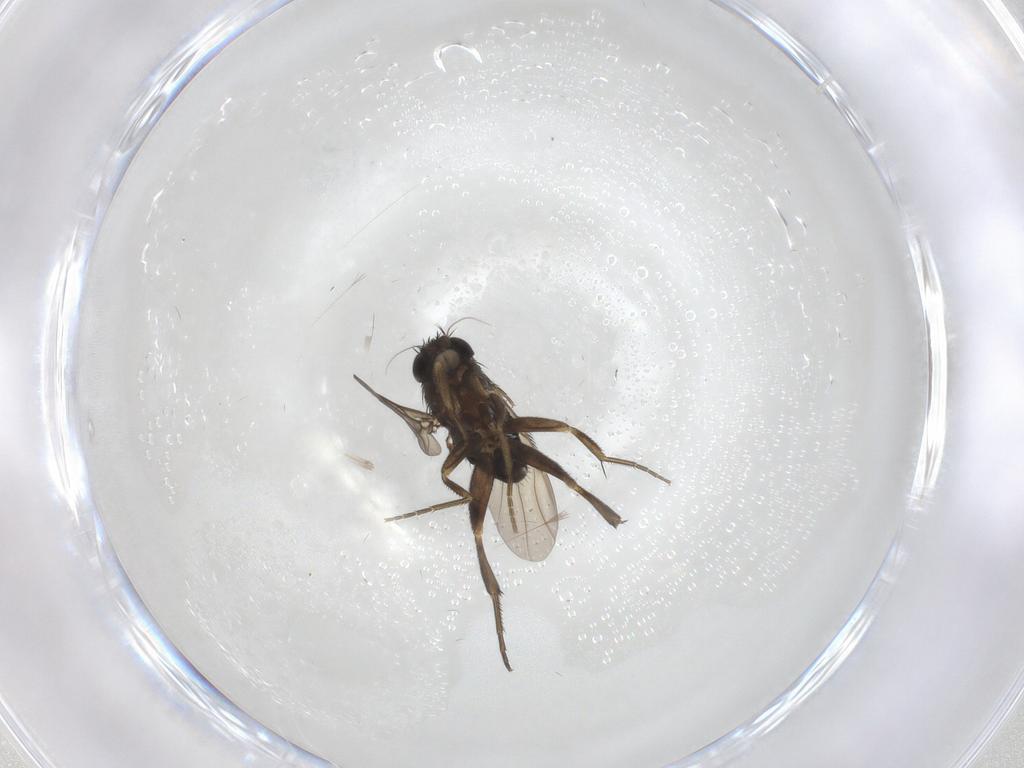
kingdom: Animalia
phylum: Arthropoda
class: Insecta
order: Diptera
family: Phoridae
